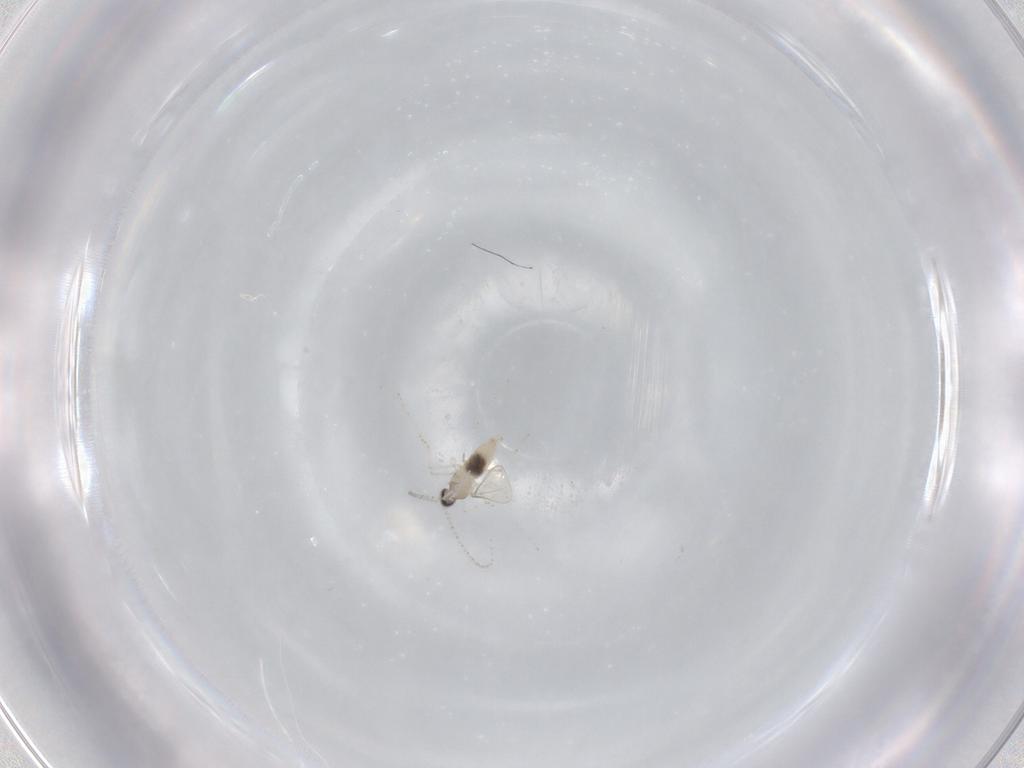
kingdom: Animalia
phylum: Arthropoda
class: Insecta
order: Diptera
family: Cecidomyiidae
